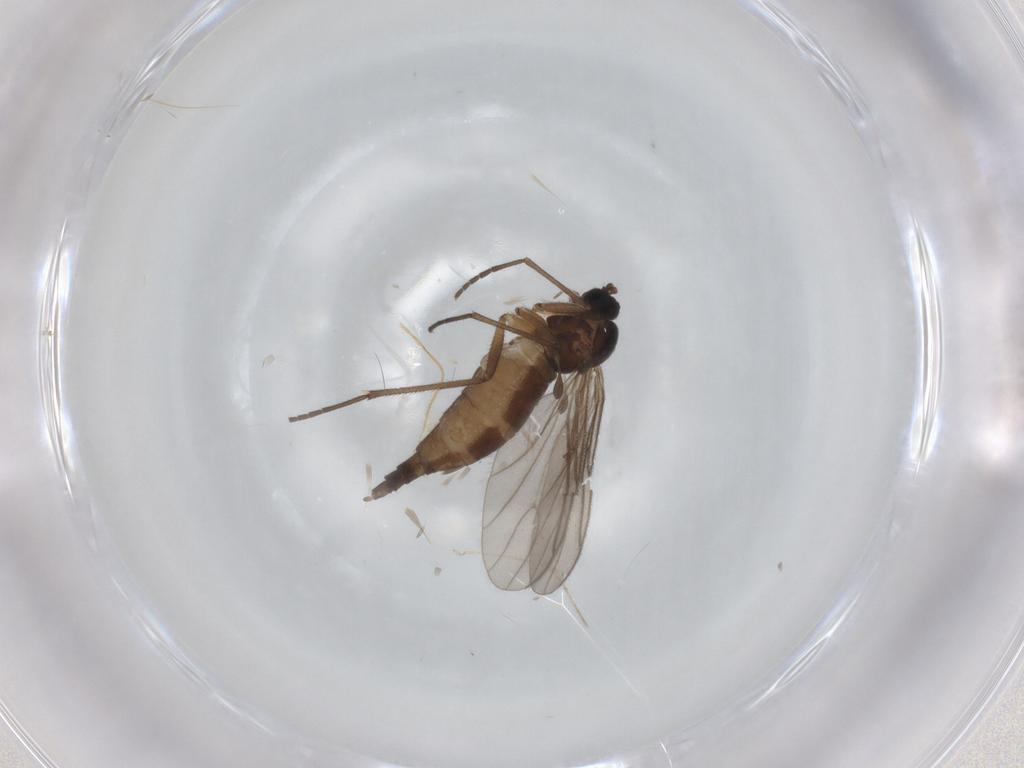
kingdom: Animalia
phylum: Arthropoda
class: Insecta
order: Diptera
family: Sciaridae
